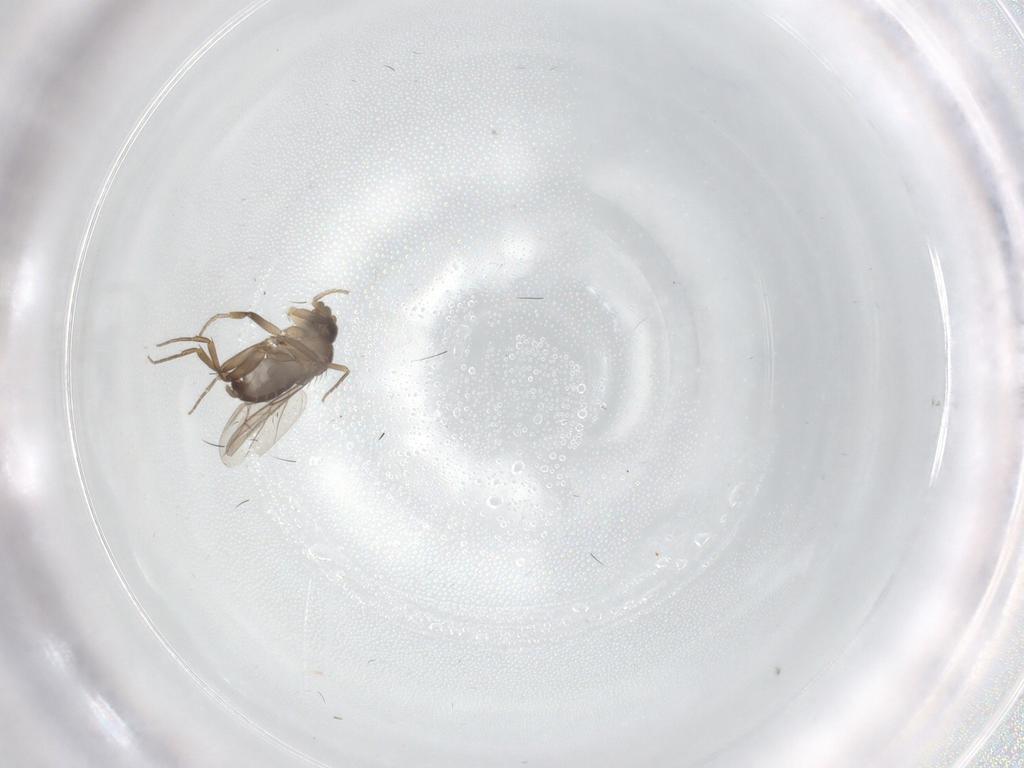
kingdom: Animalia
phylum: Arthropoda
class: Insecta
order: Diptera
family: Phoridae
